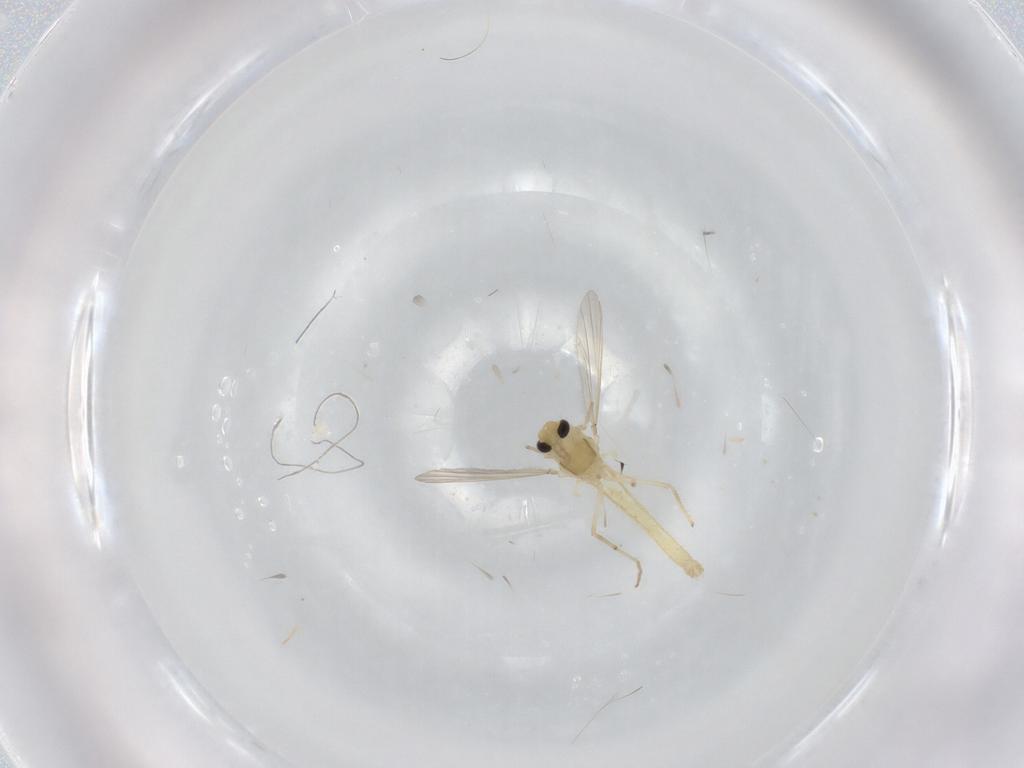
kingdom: Animalia
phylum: Arthropoda
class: Insecta
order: Diptera
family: Chironomidae
